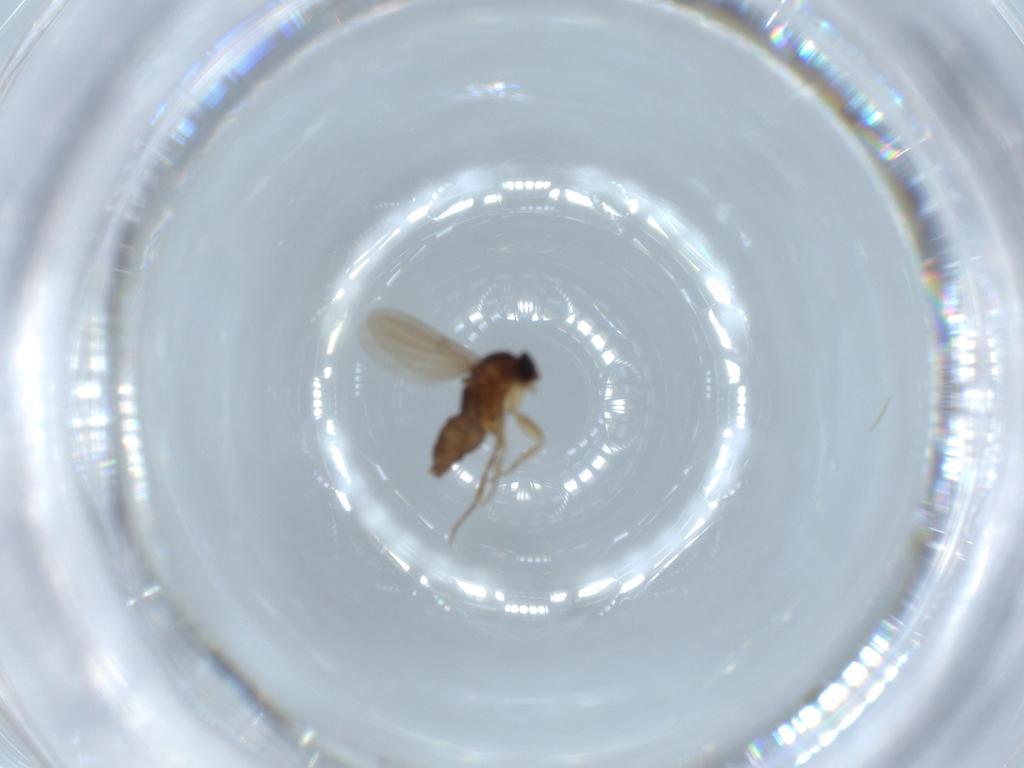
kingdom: Animalia
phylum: Arthropoda
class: Insecta
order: Diptera
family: Phoridae
